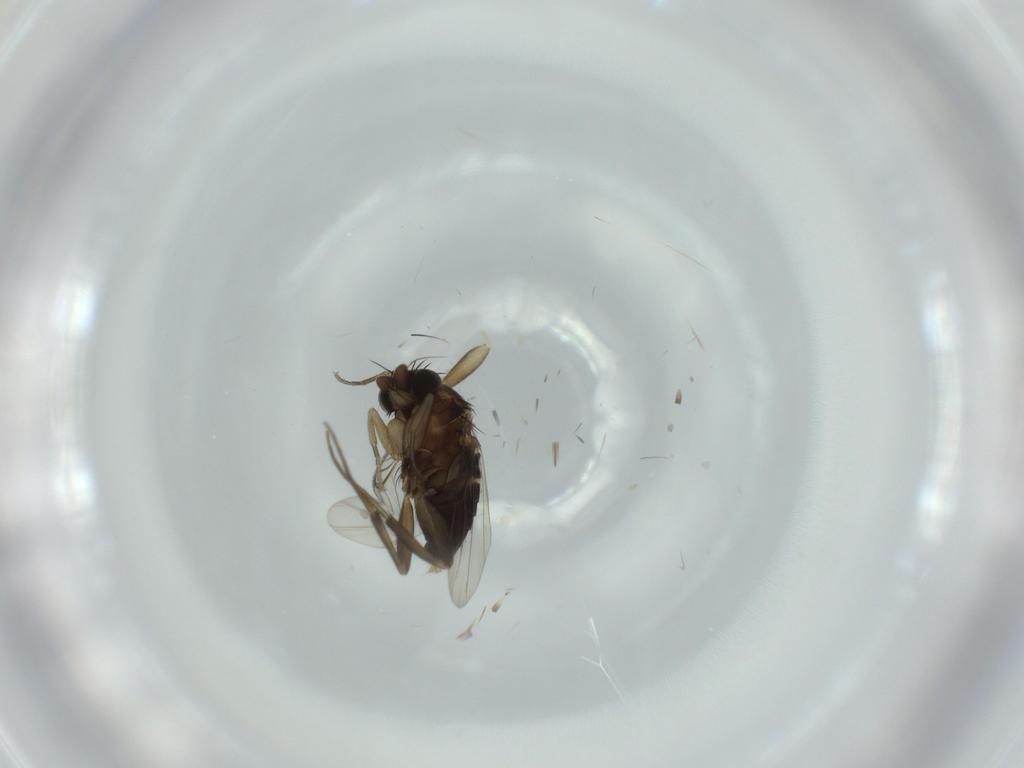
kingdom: Animalia
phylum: Arthropoda
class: Insecta
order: Diptera
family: Phoridae
